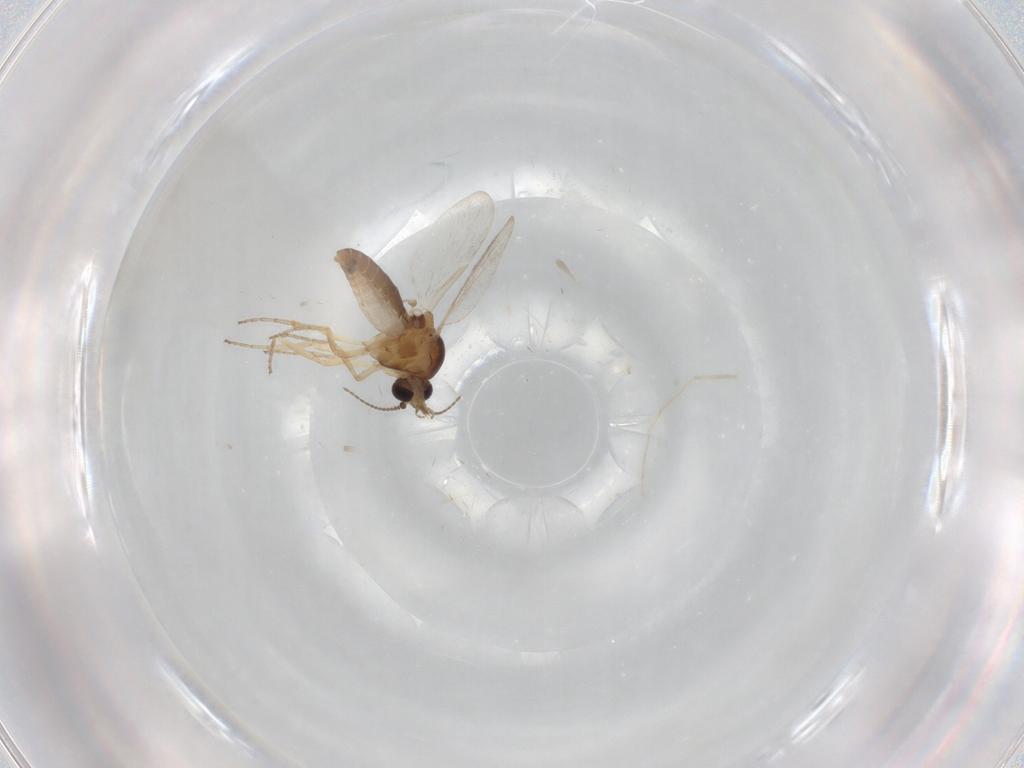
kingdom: Animalia
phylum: Arthropoda
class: Insecta
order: Diptera
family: Ceratopogonidae
